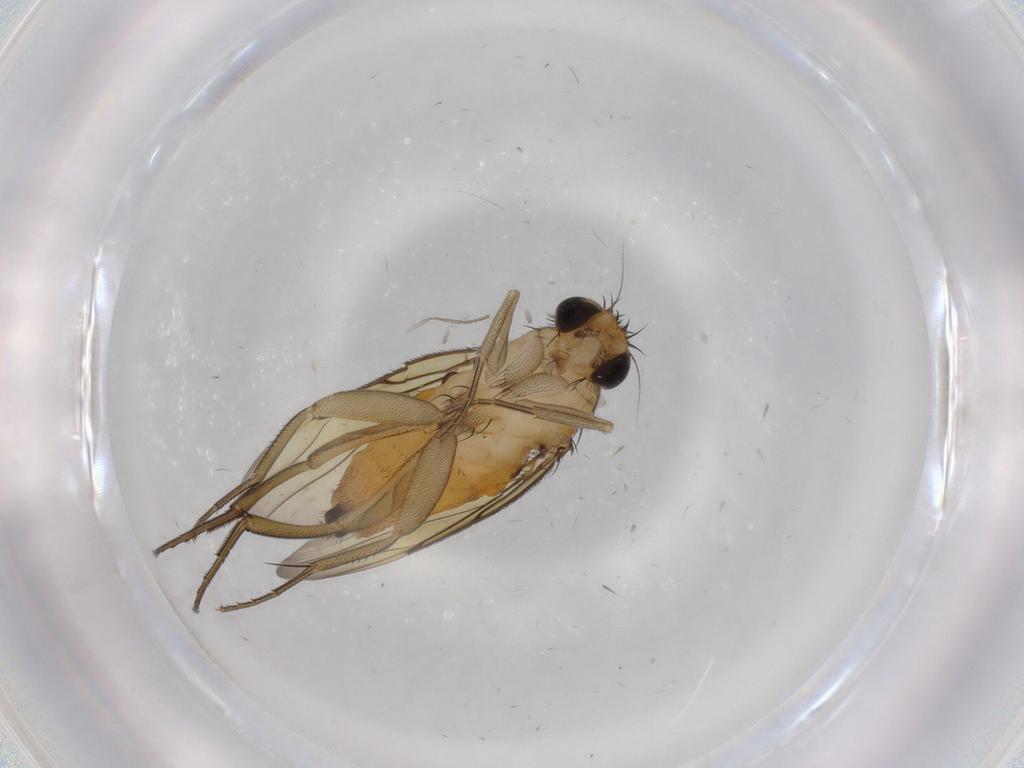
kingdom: Animalia
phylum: Arthropoda
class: Insecta
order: Diptera
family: Psychodidae
